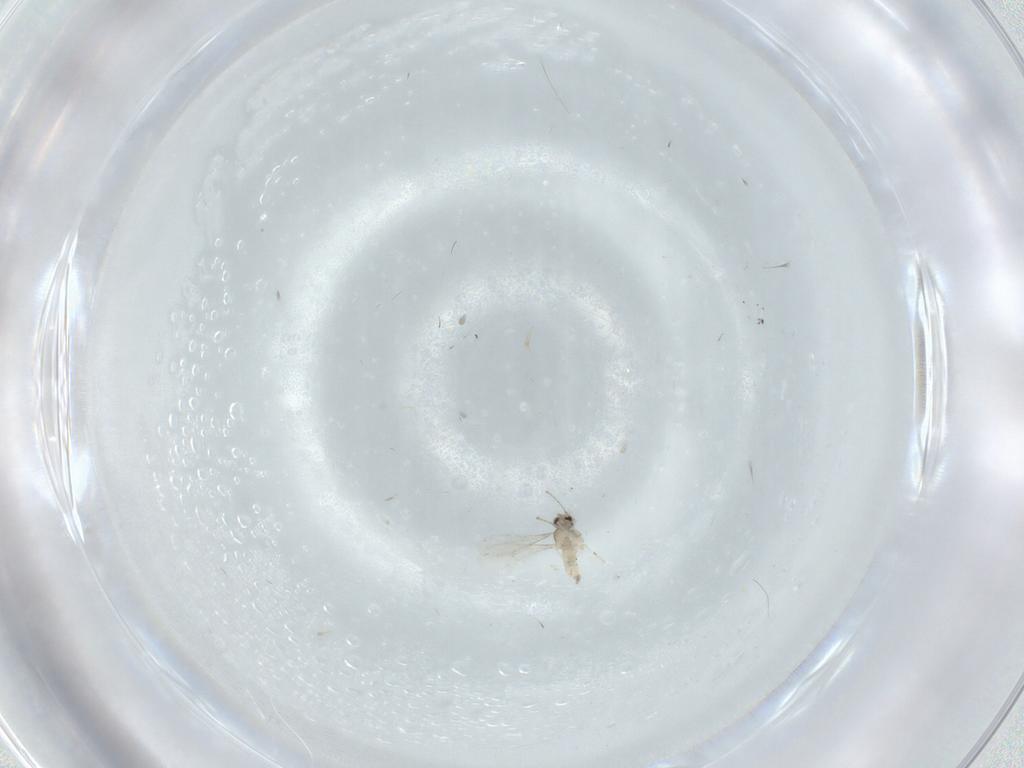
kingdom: Animalia
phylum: Arthropoda
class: Insecta
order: Diptera
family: Cecidomyiidae
